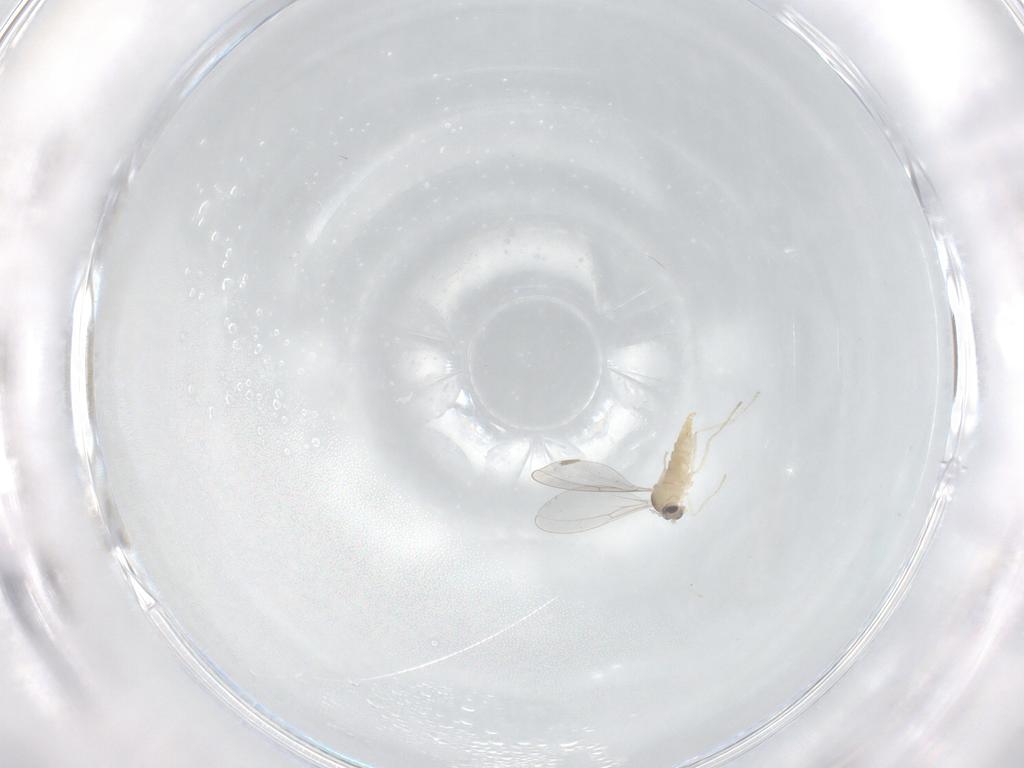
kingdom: Animalia
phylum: Arthropoda
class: Insecta
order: Diptera
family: Cecidomyiidae
